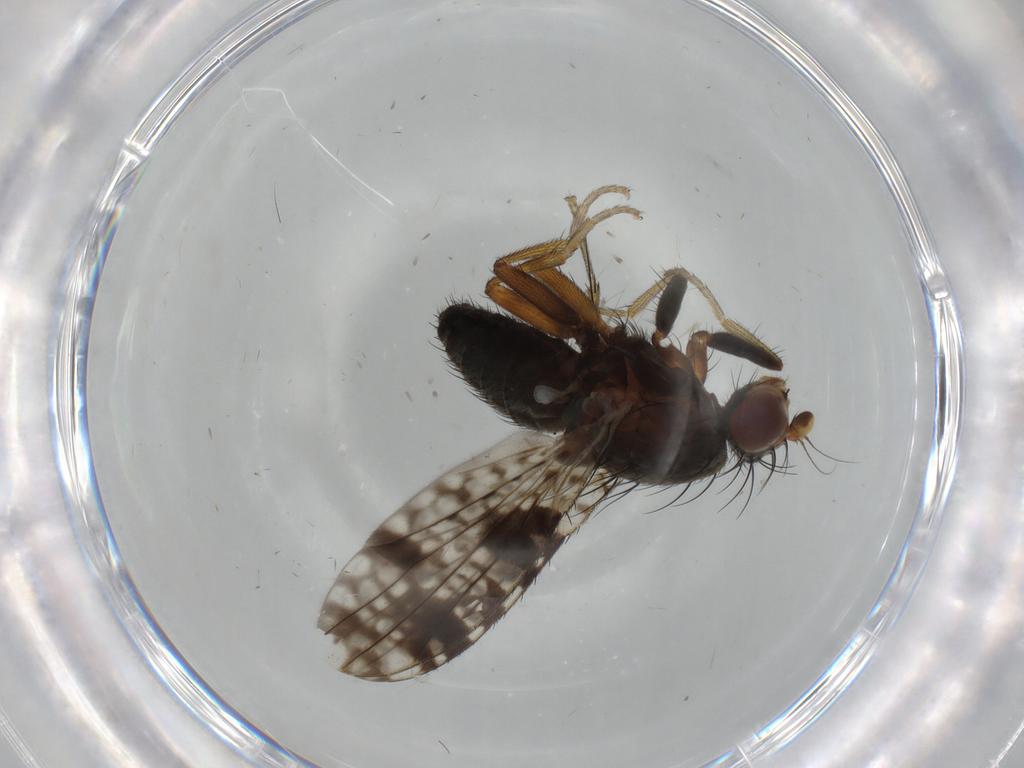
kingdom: Animalia
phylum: Arthropoda
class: Insecta
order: Diptera
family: Tephritidae
